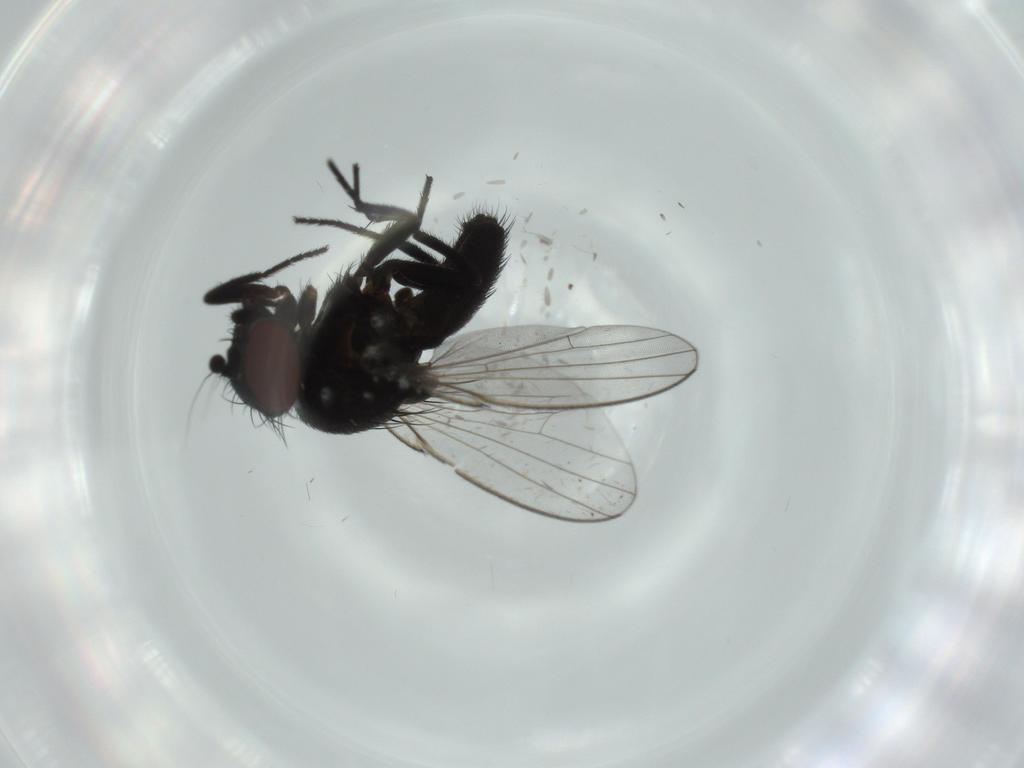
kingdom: Animalia
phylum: Arthropoda
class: Insecta
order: Diptera
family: Milichiidae
